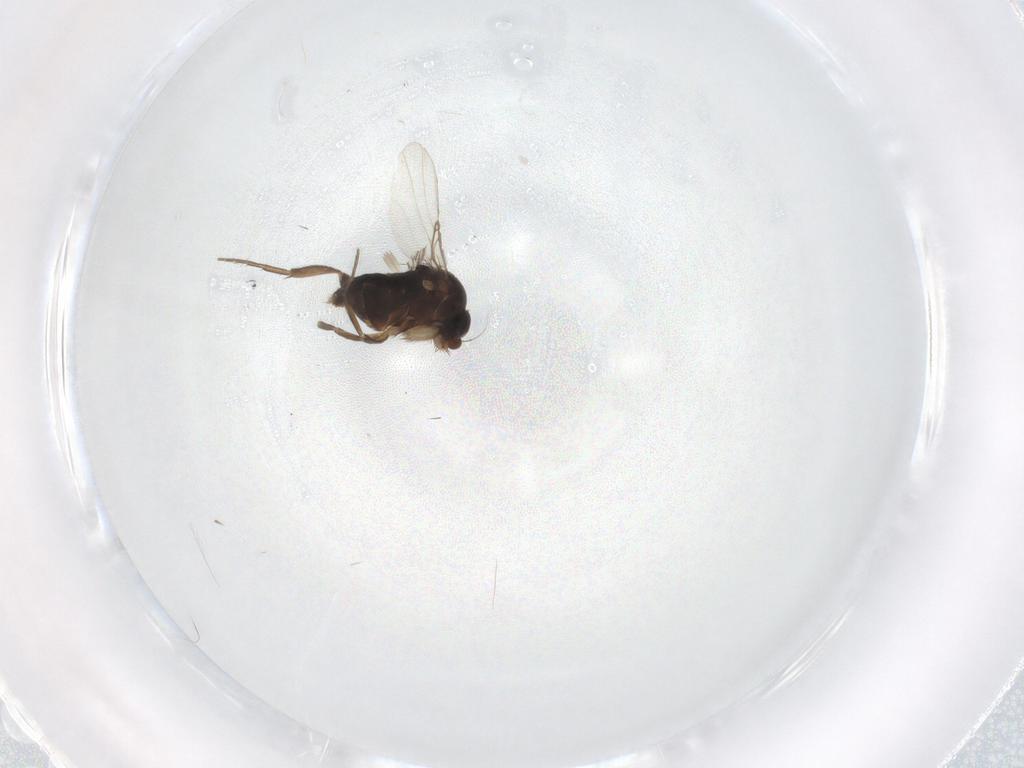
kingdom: Animalia
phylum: Arthropoda
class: Insecta
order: Diptera
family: Phoridae
